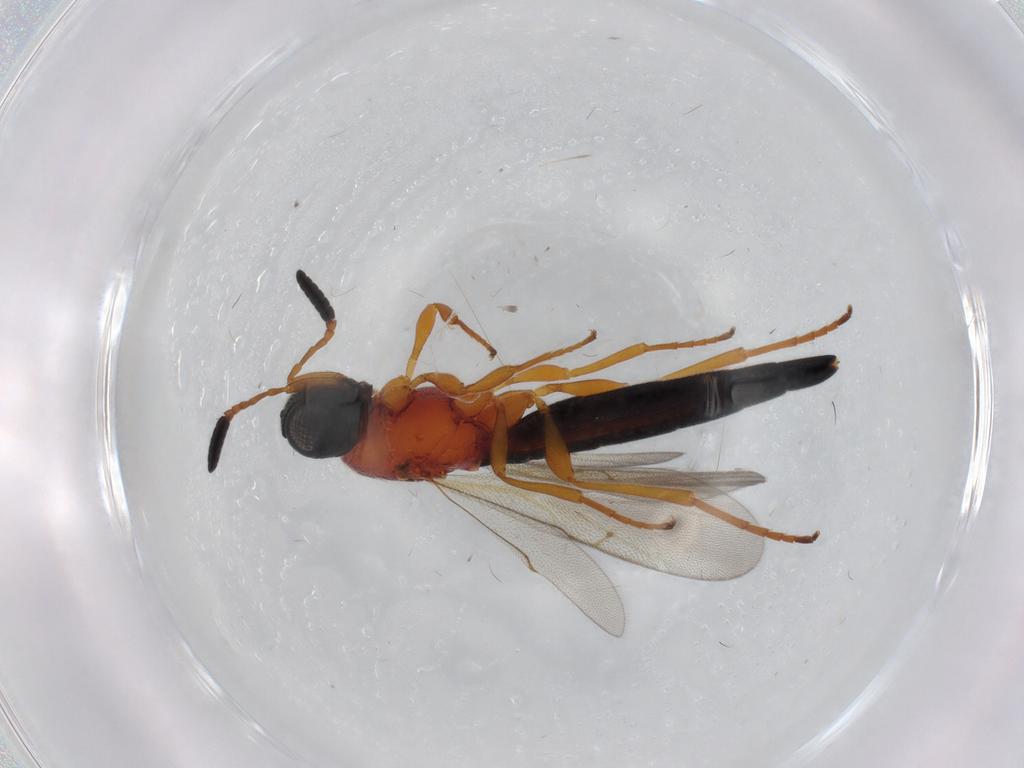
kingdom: Animalia
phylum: Arthropoda
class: Insecta
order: Hymenoptera
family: Scelionidae
